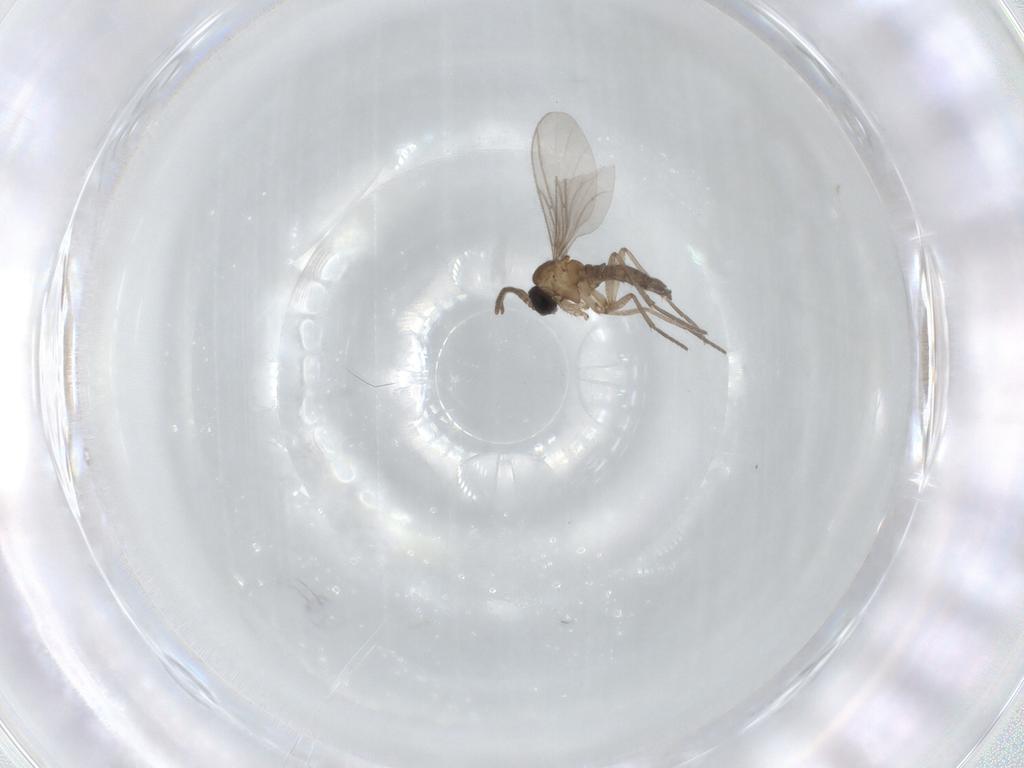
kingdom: Animalia
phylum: Arthropoda
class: Insecta
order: Diptera
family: Sciaridae
